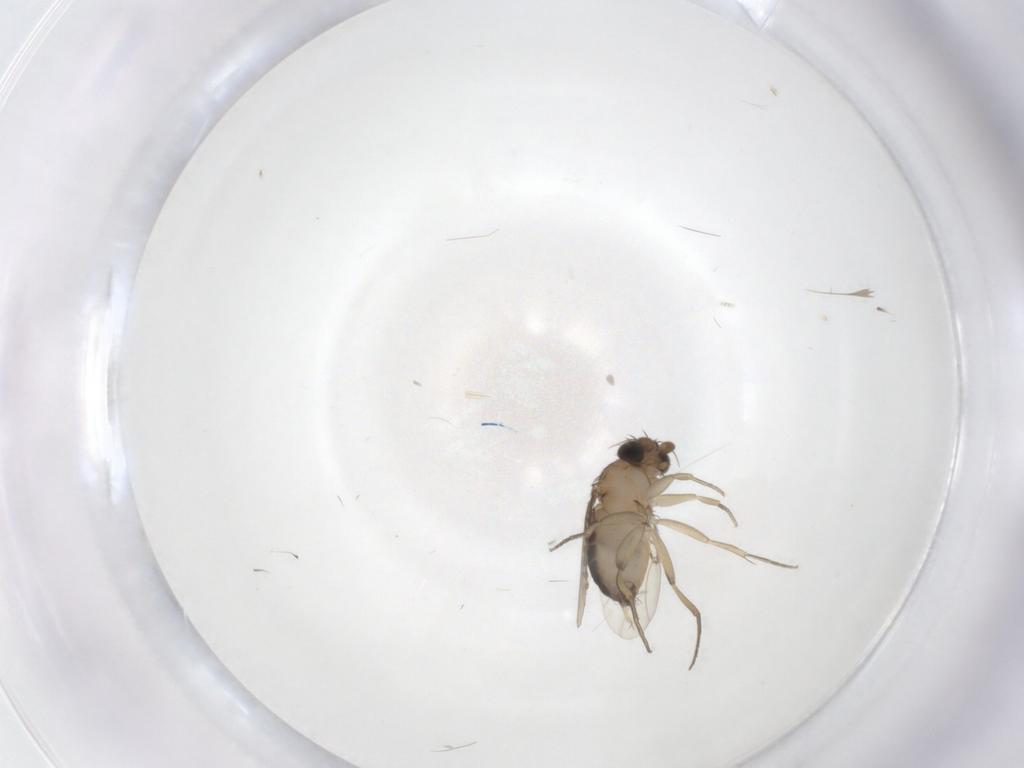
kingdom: Animalia
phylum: Arthropoda
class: Insecta
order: Diptera
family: Phoridae
